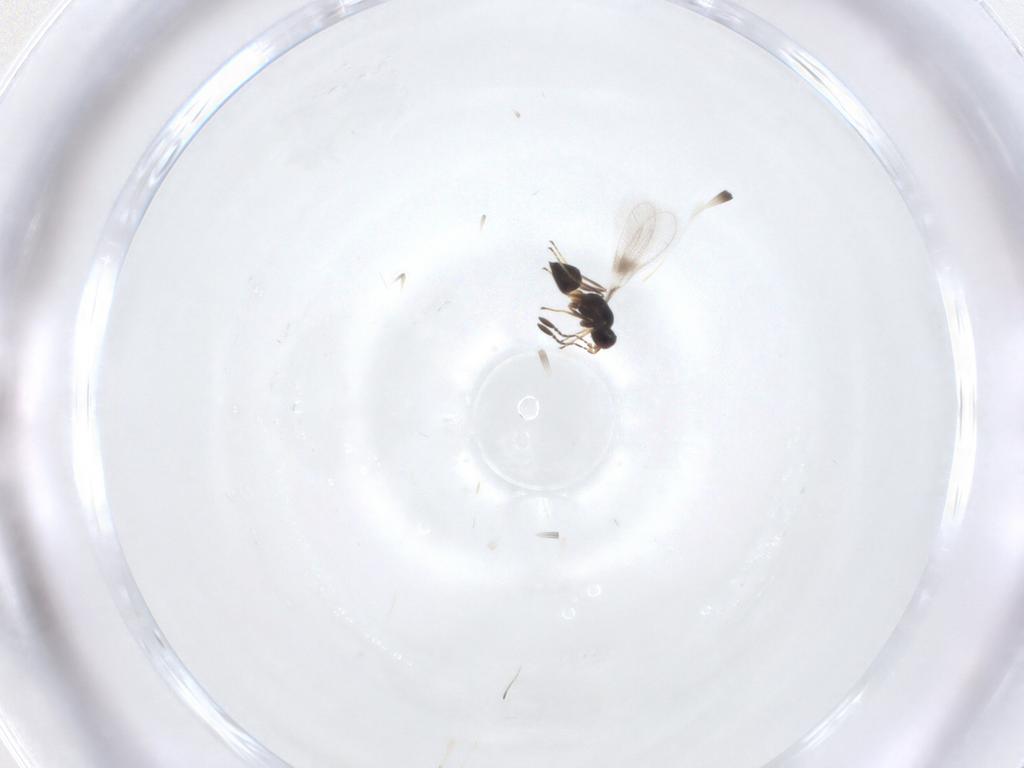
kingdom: Animalia
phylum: Arthropoda
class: Insecta
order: Hymenoptera
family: Mymaridae
